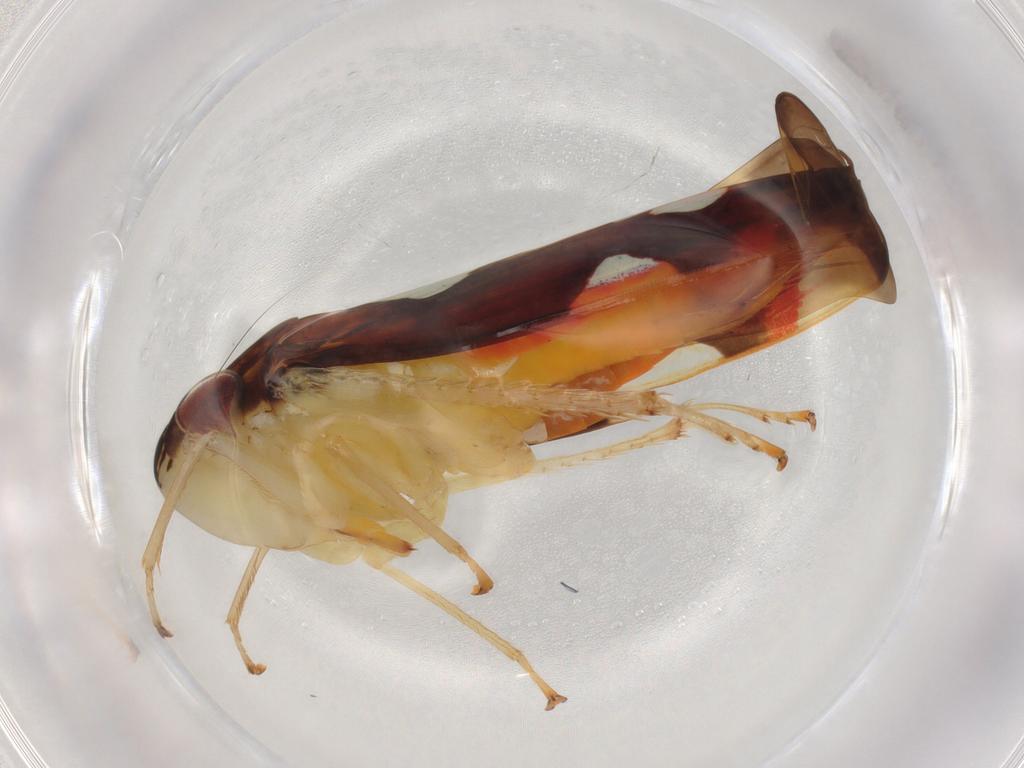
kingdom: Animalia
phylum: Arthropoda
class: Insecta
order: Hemiptera
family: Cicadellidae
